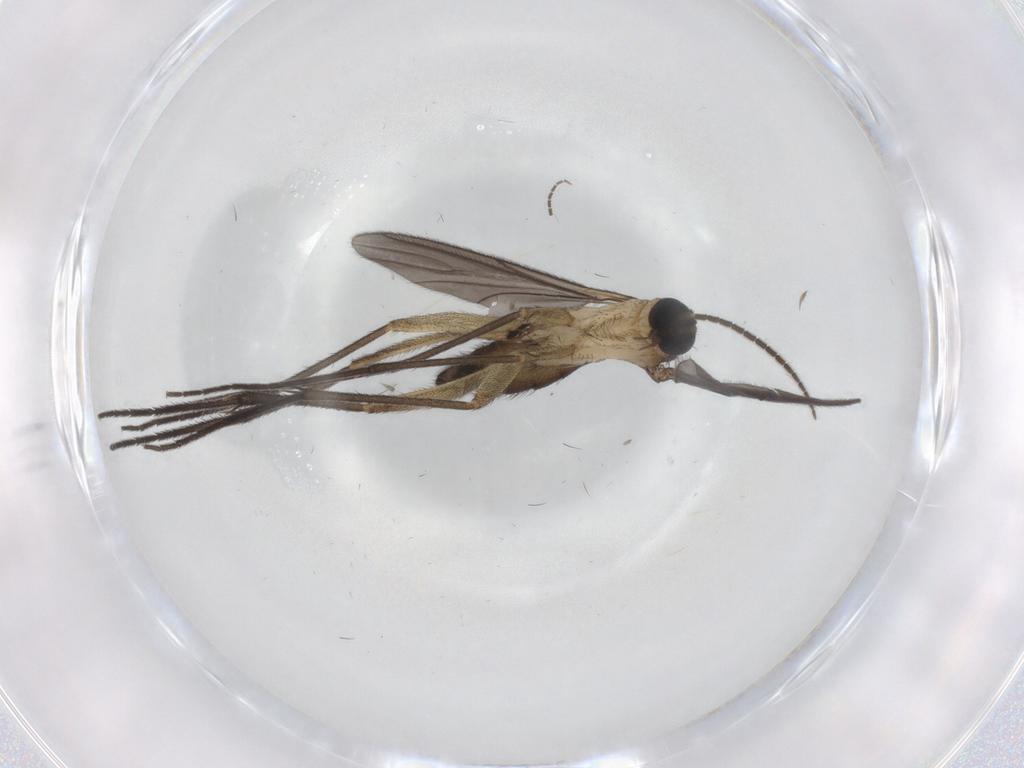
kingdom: Animalia
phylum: Arthropoda
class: Insecta
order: Diptera
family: Sciaridae
